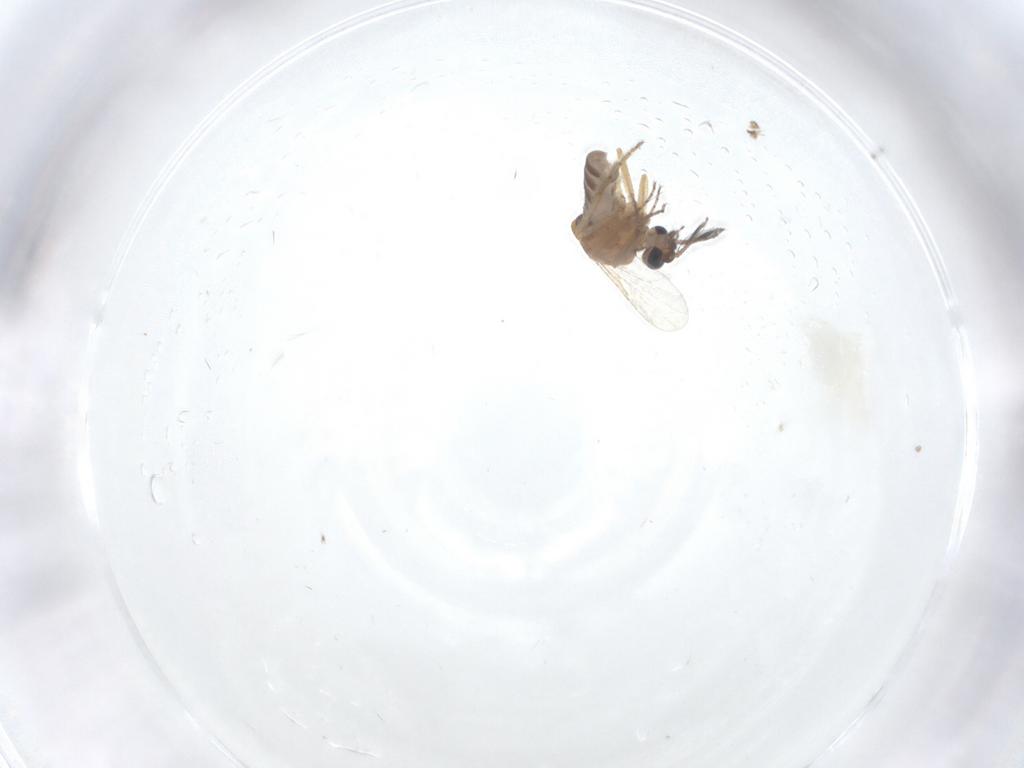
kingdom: Animalia
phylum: Arthropoda
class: Insecta
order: Diptera
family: Ceratopogonidae
